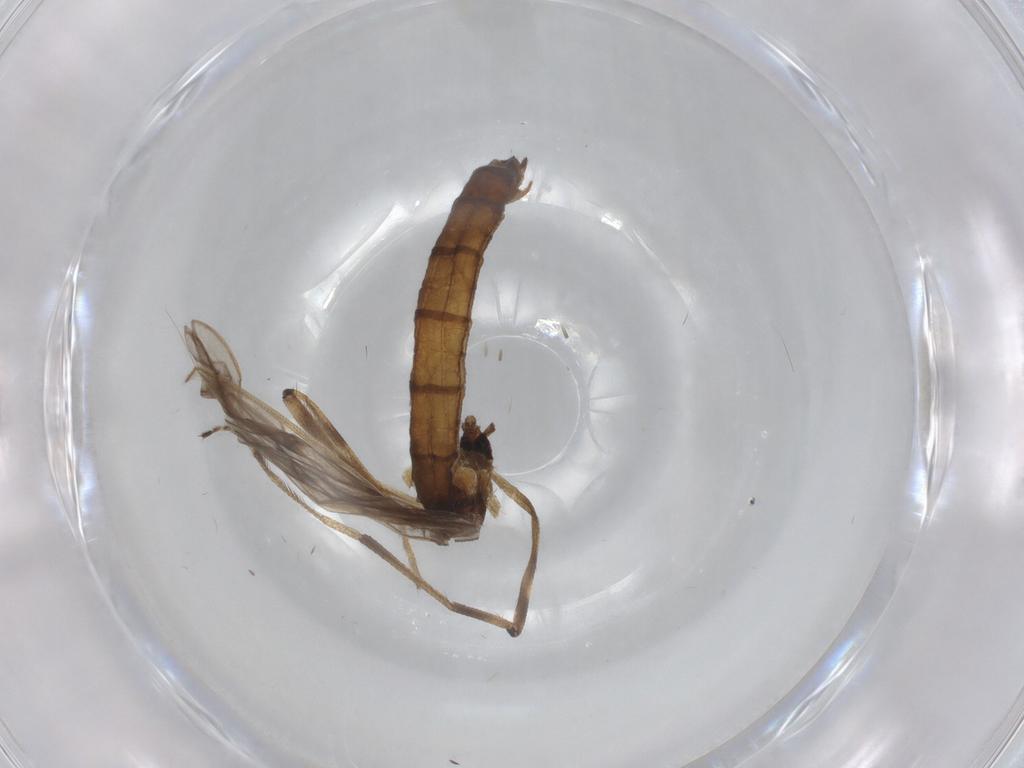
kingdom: Animalia
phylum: Arthropoda
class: Insecta
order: Diptera
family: Limoniidae
